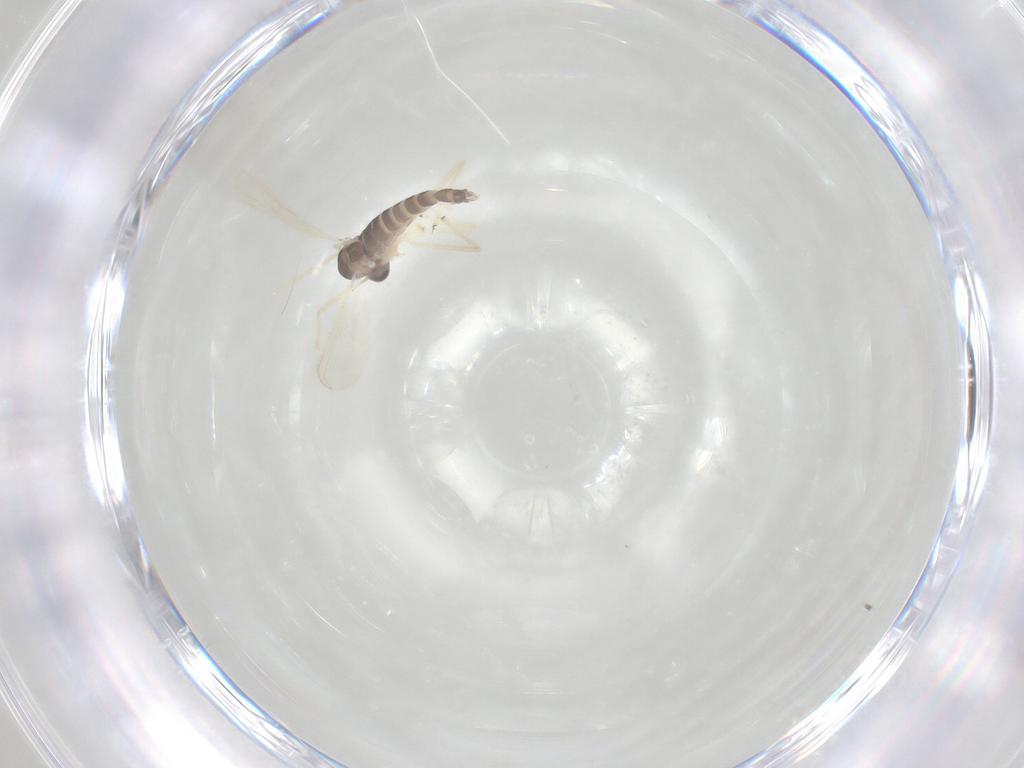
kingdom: Animalia
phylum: Arthropoda
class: Insecta
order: Diptera
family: Chironomidae
